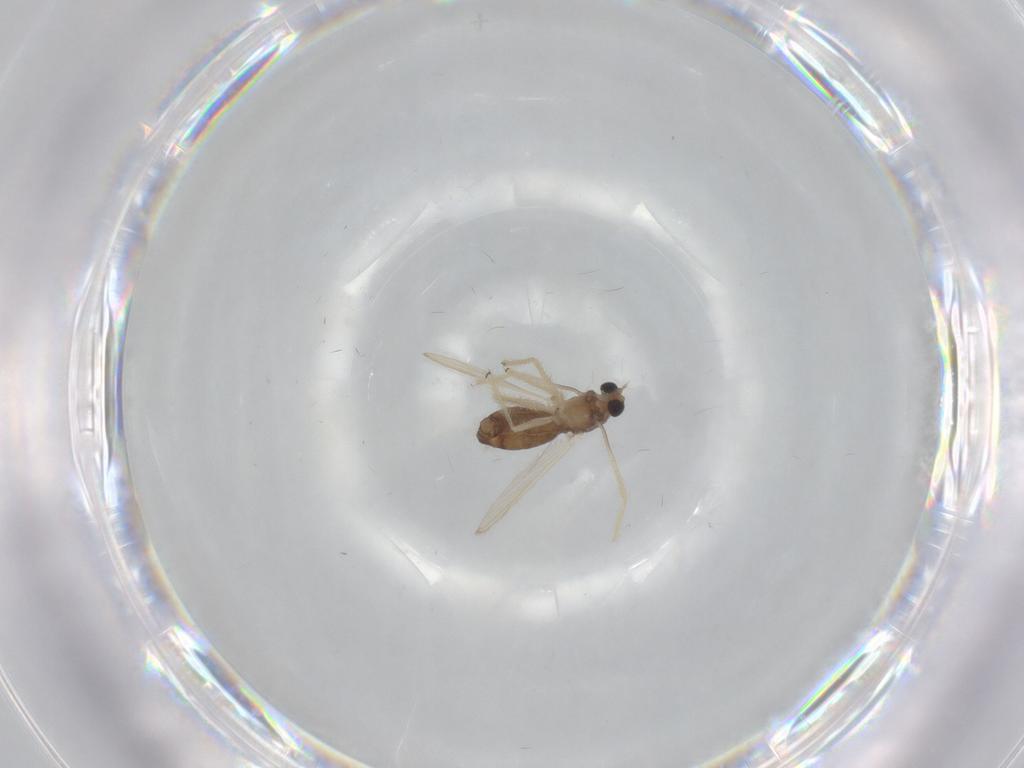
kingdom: Animalia
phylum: Arthropoda
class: Insecta
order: Diptera
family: Chironomidae
